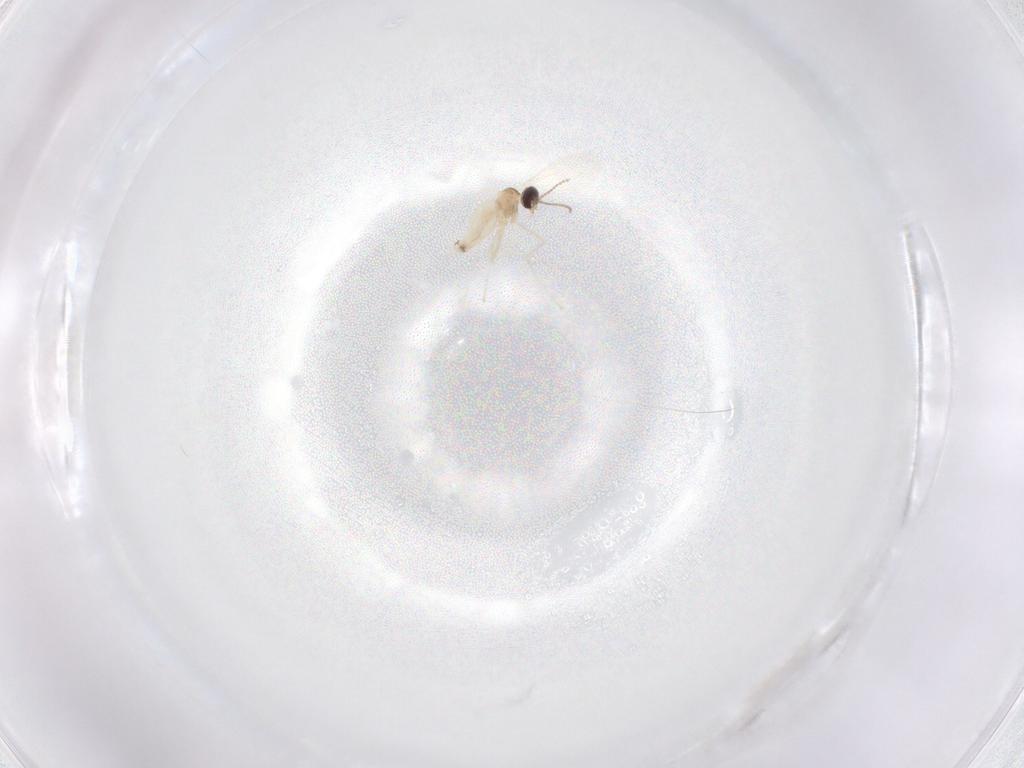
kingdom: Animalia
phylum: Arthropoda
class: Insecta
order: Diptera
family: Cecidomyiidae
